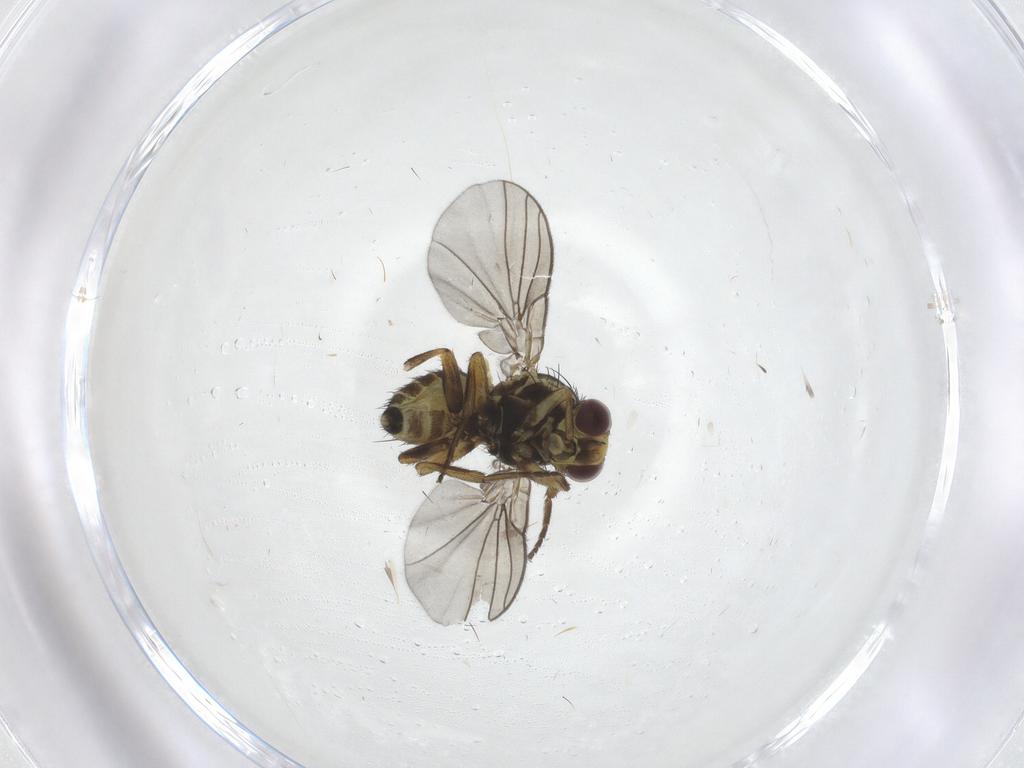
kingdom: Animalia
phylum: Arthropoda
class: Insecta
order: Diptera
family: Agromyzidae
